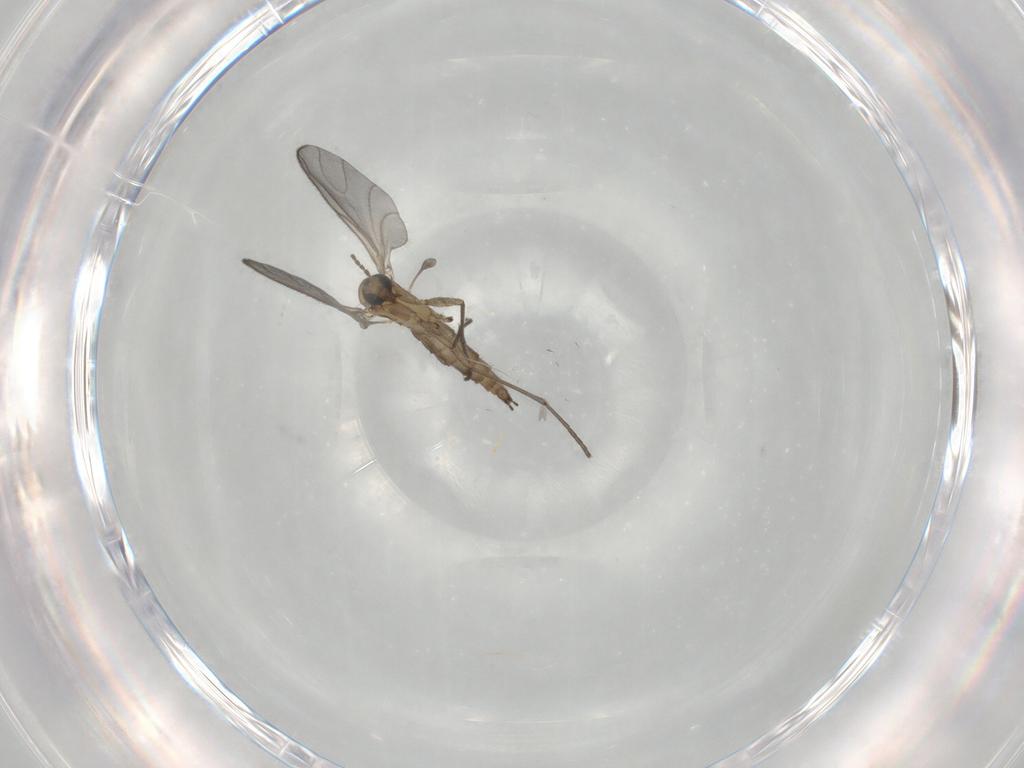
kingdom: Animalia
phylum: Arthropoda
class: Insecta
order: Diptera
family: Sciaridae
